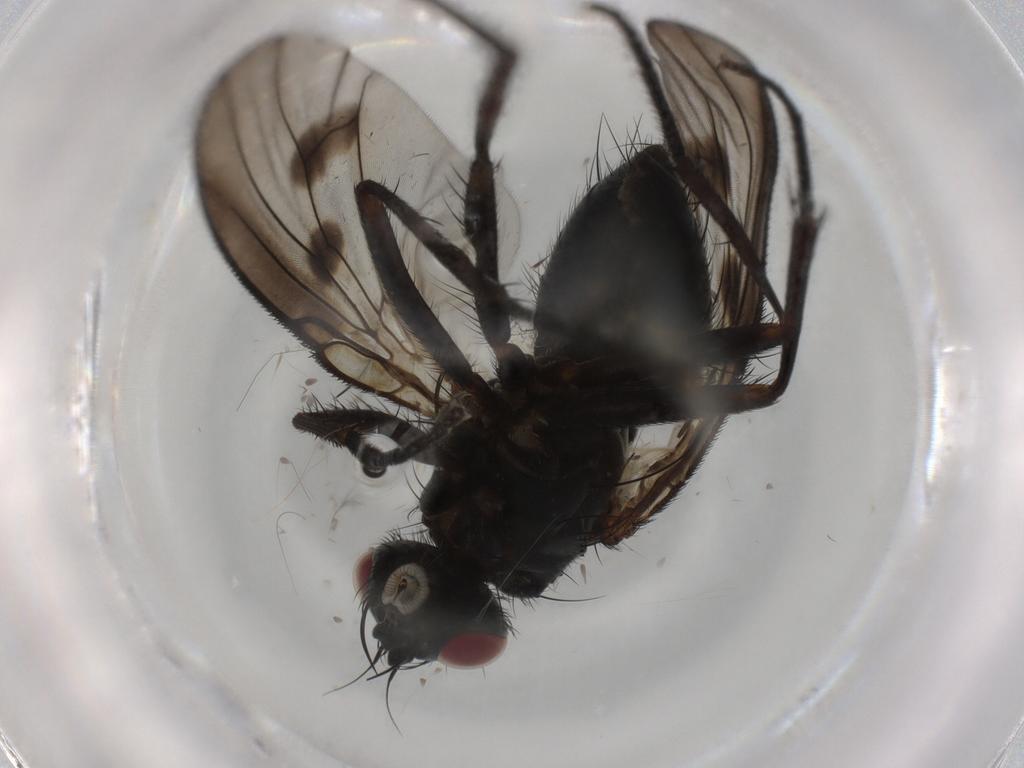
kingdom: Animalia
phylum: Arthropoda
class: Insecta
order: Diptera
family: Muscidae
